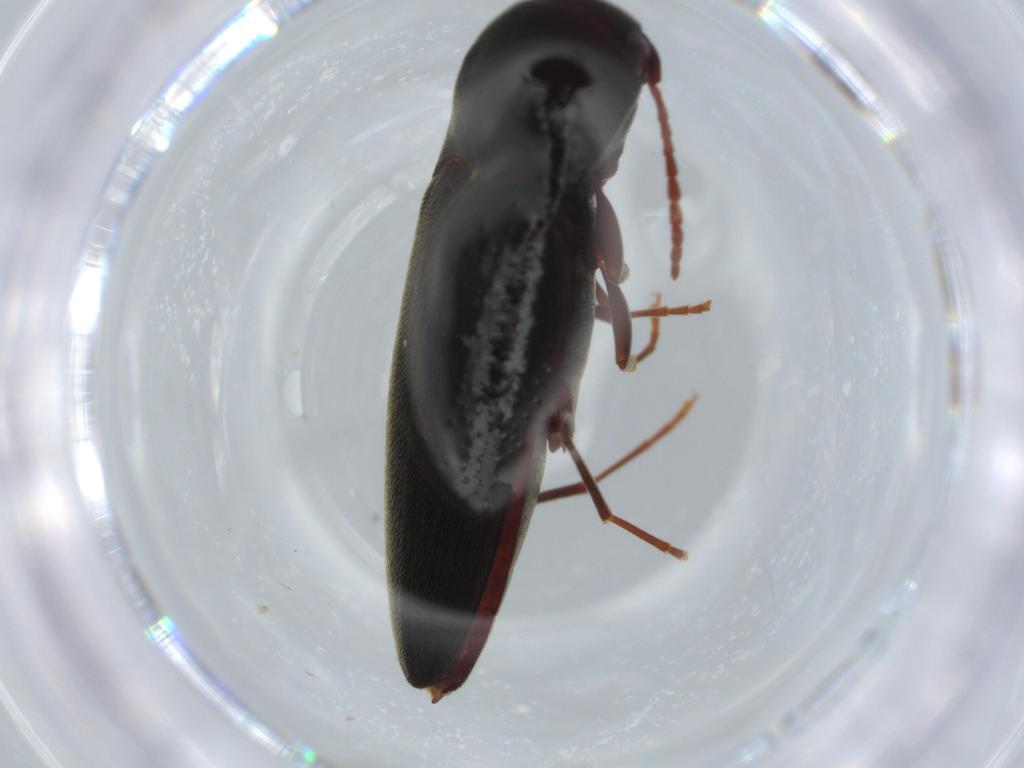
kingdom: Animalia
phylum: Arthropoda
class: Insecta
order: Coleoptera
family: Eucnemidae
